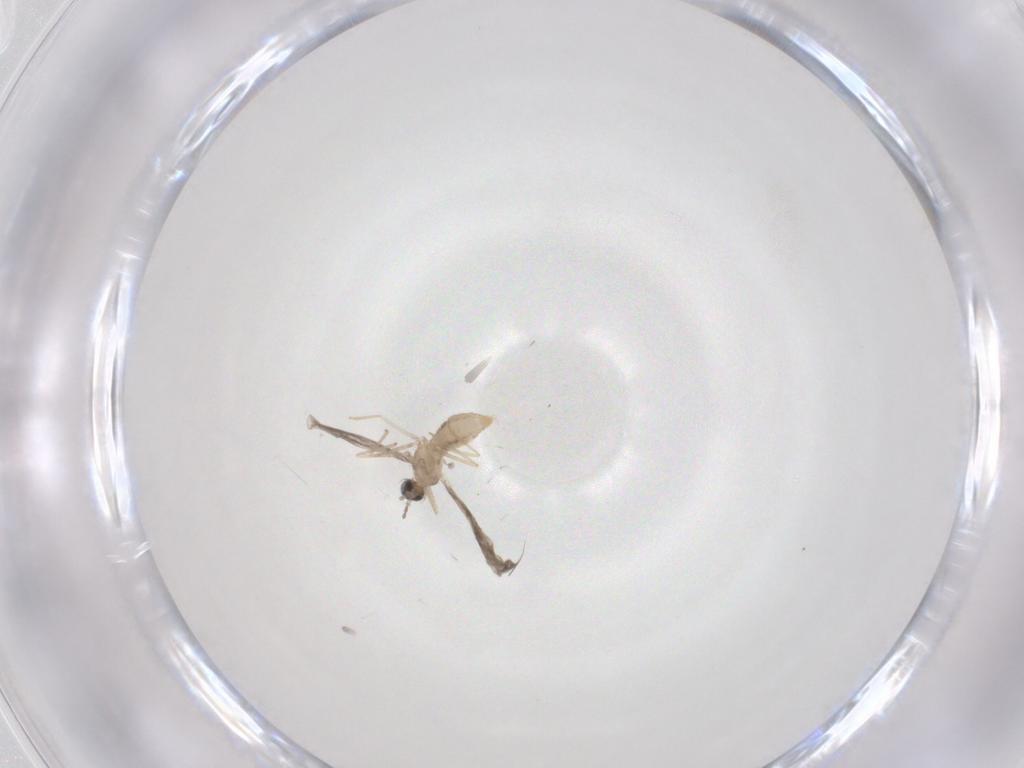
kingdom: Animalia
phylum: Arthropoda
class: Insecta
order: Diptera
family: Cecidomyiidae
